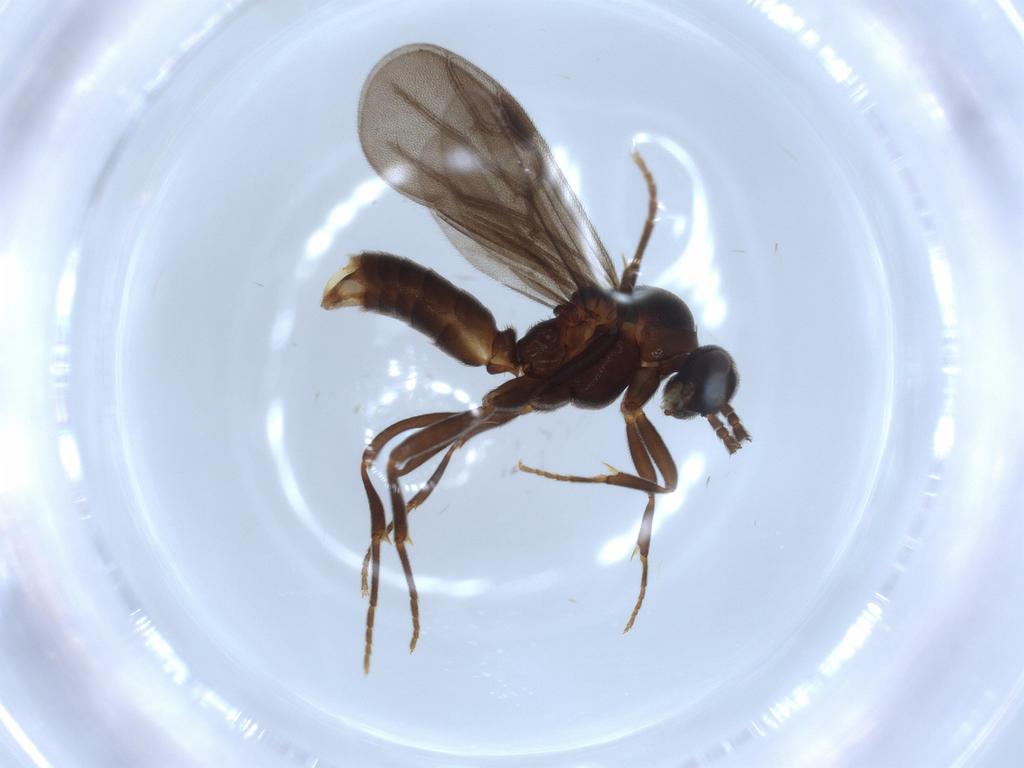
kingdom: Animalia
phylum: Arthropoda
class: Insecta
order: Hymenoptera
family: Formicidae
